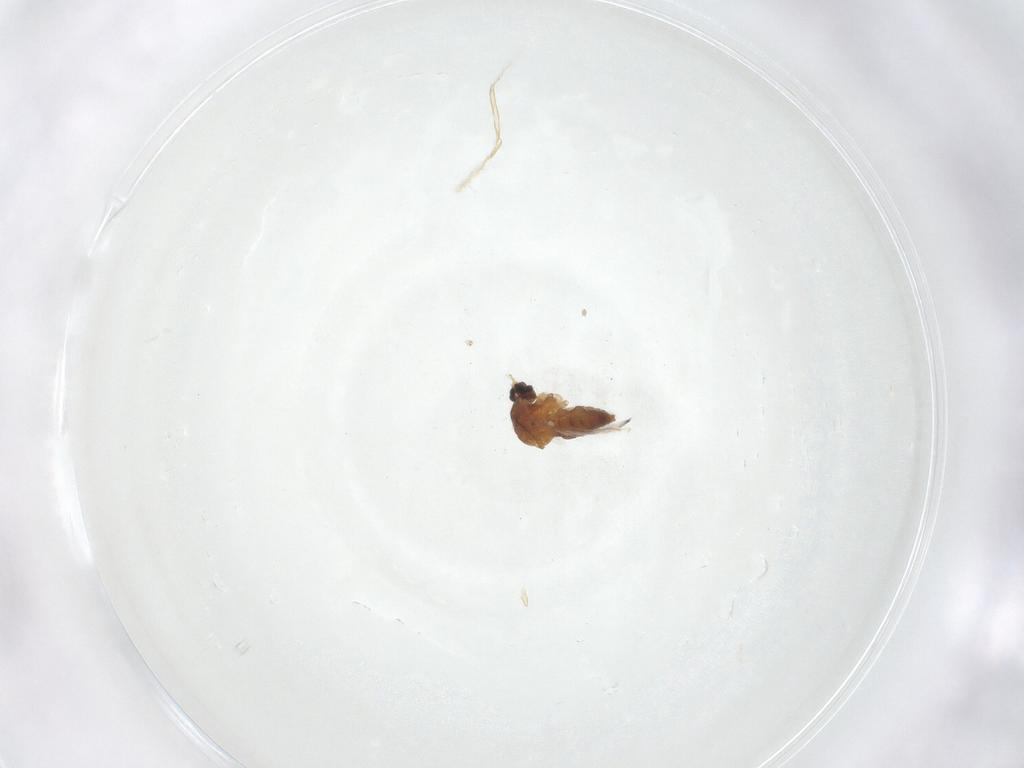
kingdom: Animalia
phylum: Arthropoda
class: Insecta
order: Diptera
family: Ceratopogonidae
